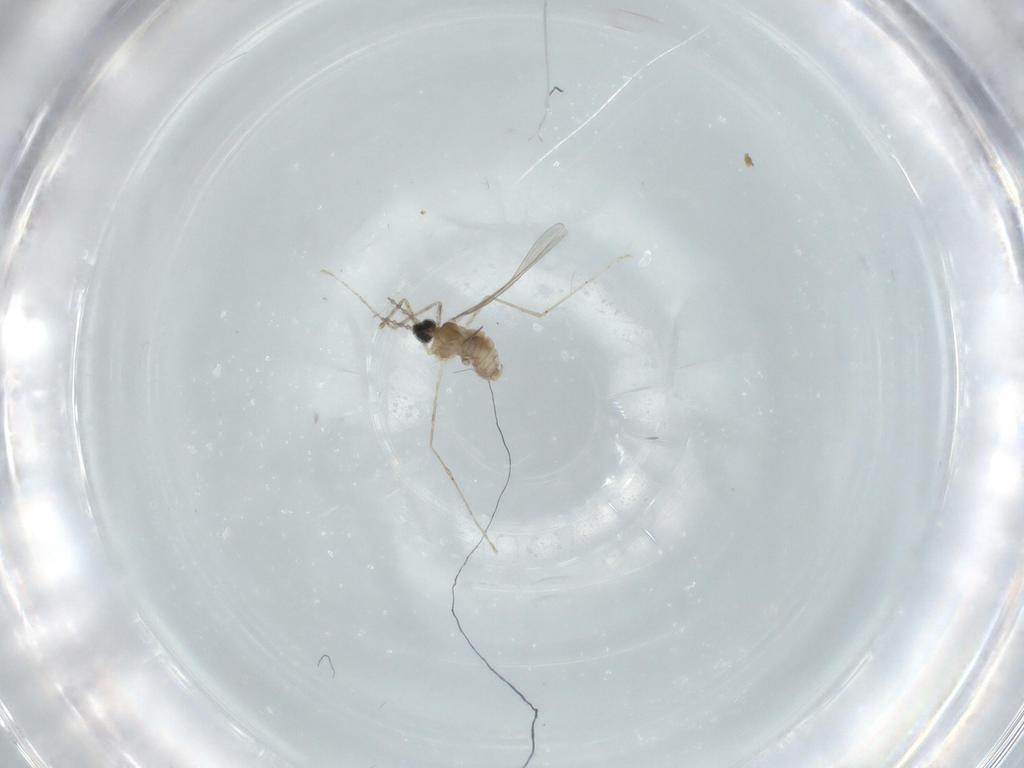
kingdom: Animalia
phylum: Arthropoda
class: Insecta
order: Diptera
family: Cecidomyiidae
